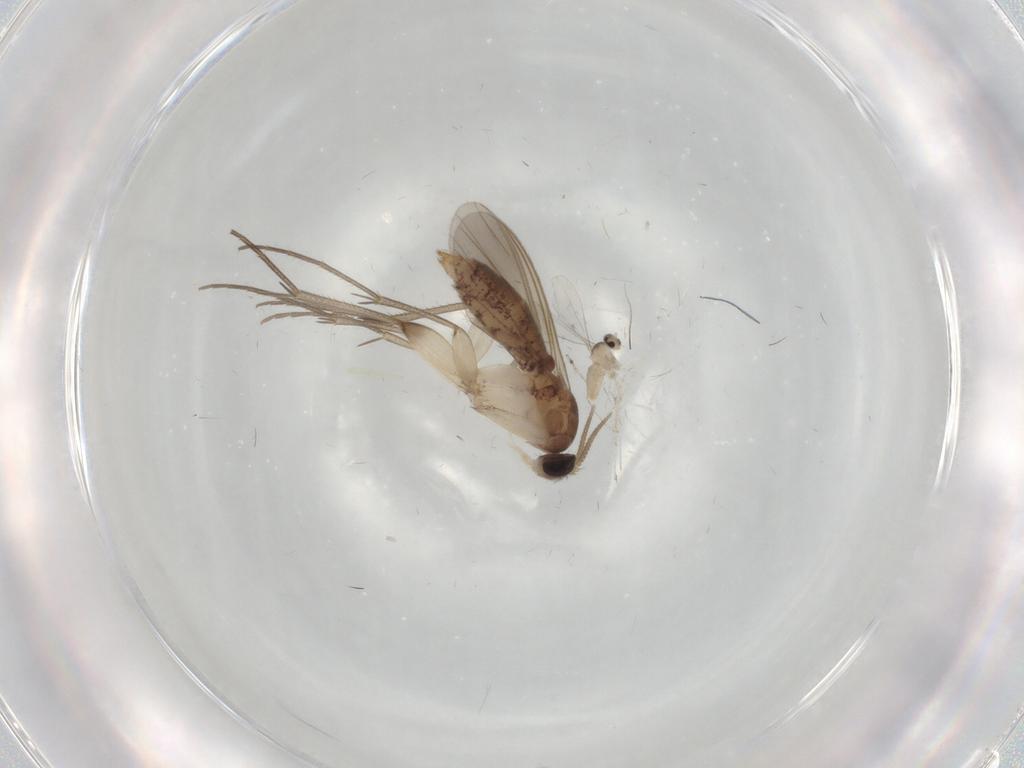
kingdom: Animalia
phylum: Arthropoda
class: Insecta
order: Diptera
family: Mycetophilidae
